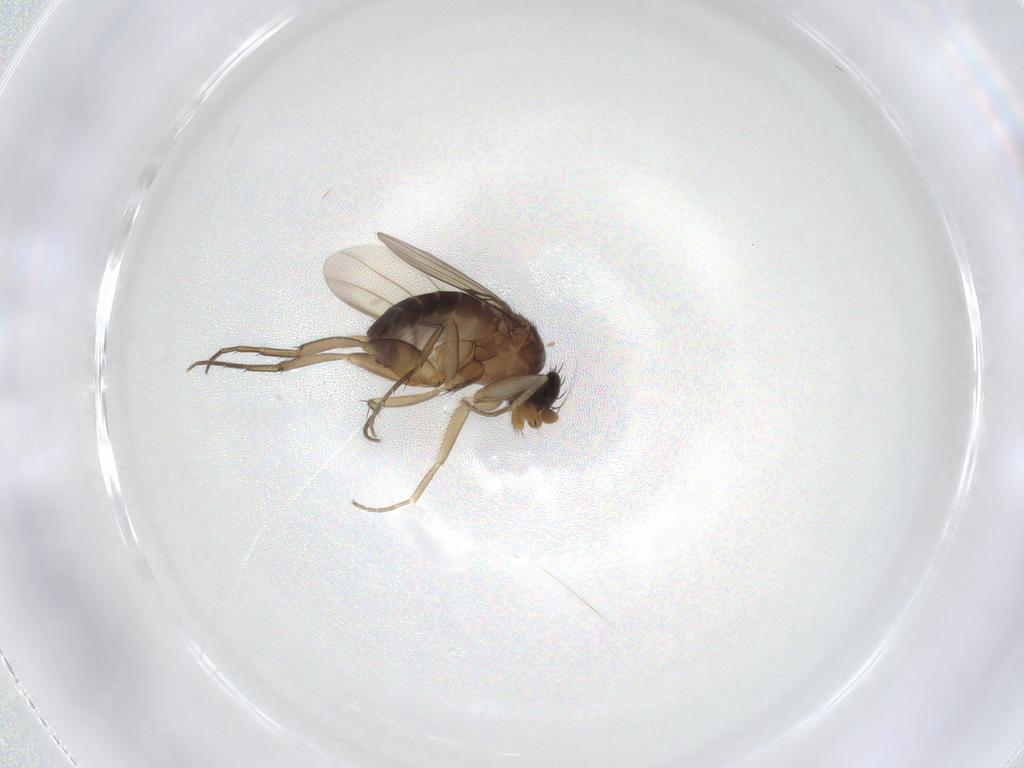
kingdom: Animalia
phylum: Arthropoda
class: Insecta
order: Diptera
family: Phoridae
